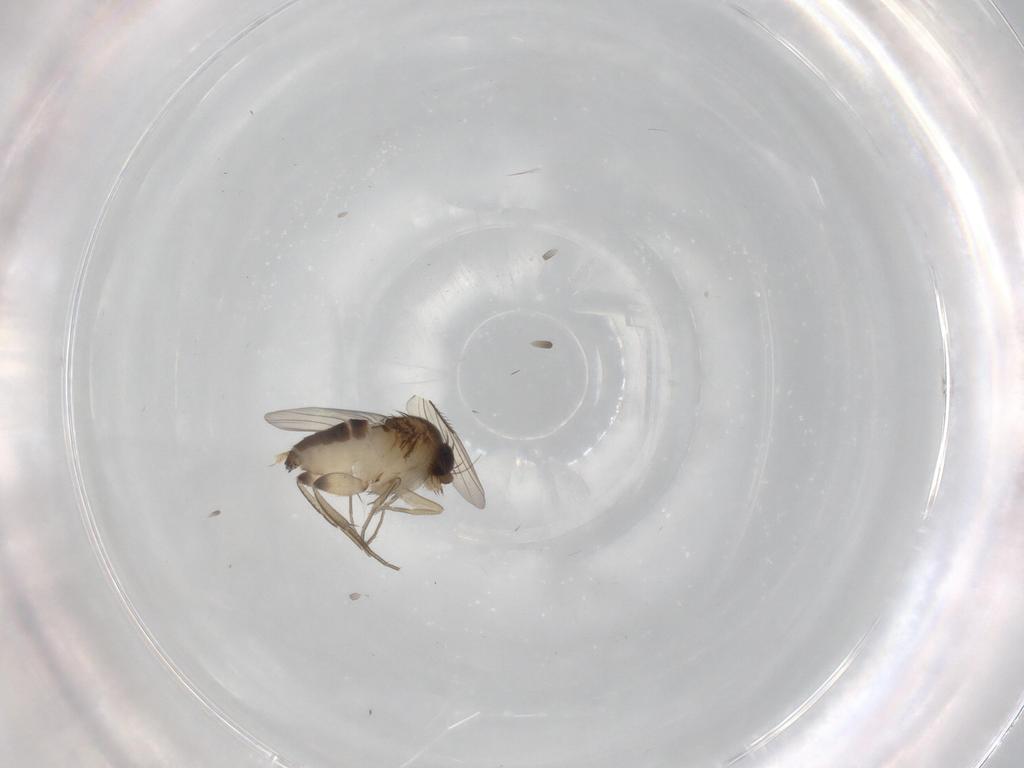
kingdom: Animalia
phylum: Arthropoda
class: Insecta
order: Diptera
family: Phoridae
